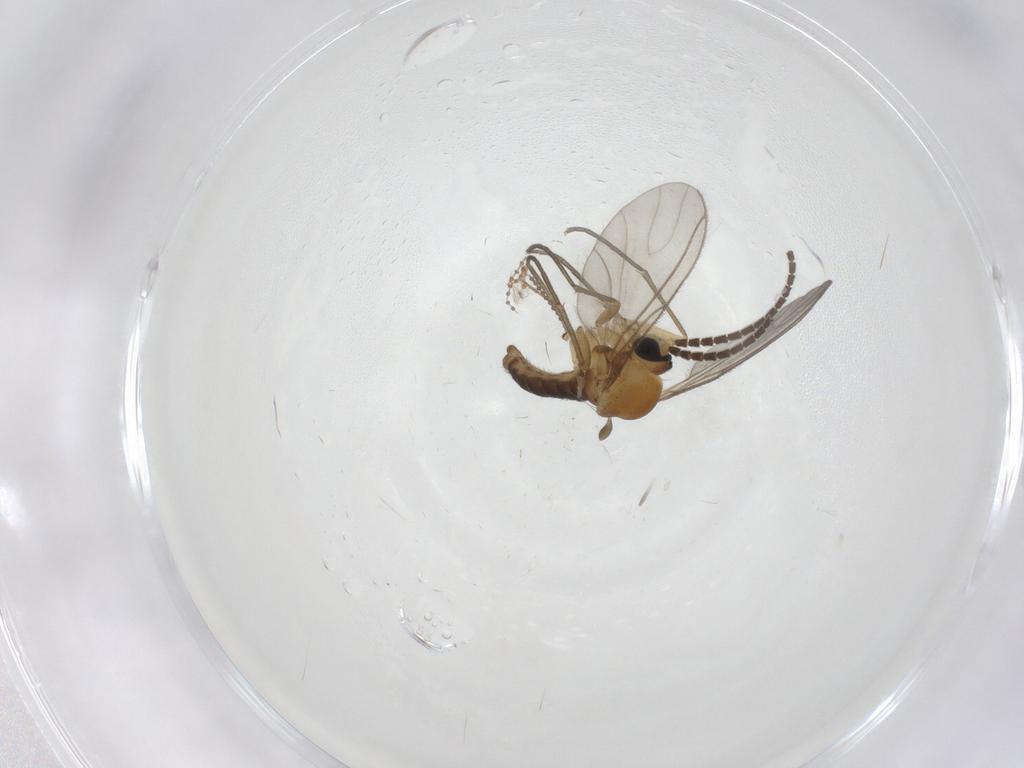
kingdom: Animalia
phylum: Arthropoda
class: Insecta
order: Diptera
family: Sciaridae
